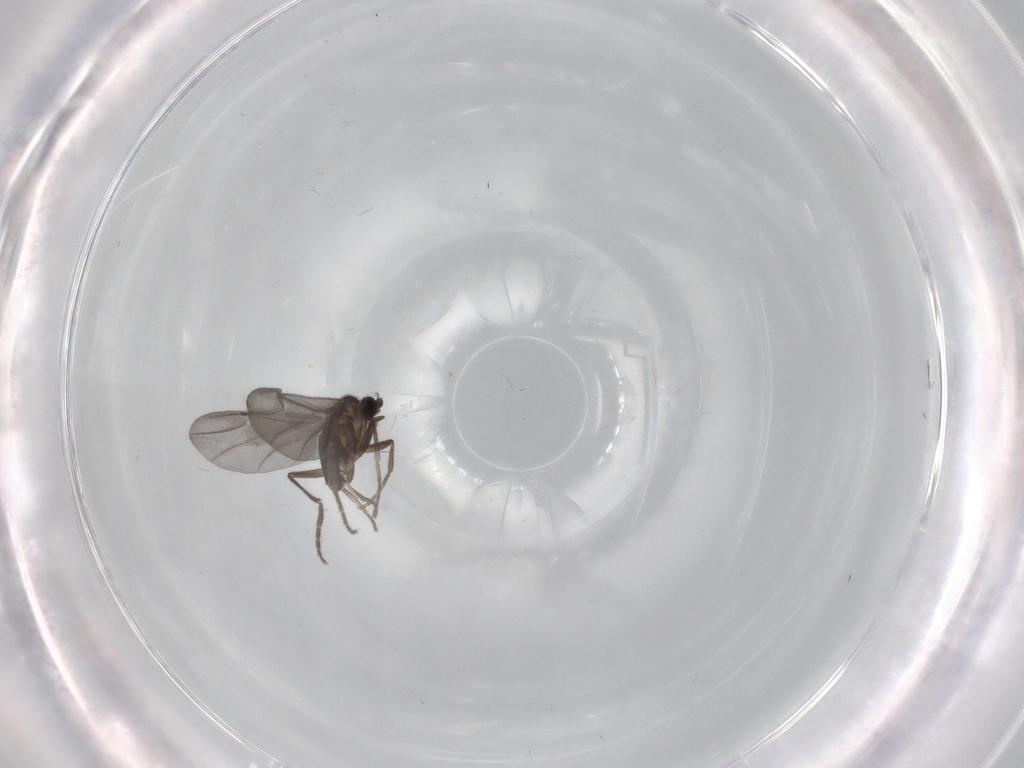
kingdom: Animalia
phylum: Arthropoda
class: Insecta
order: Diptera
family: Phoridae
